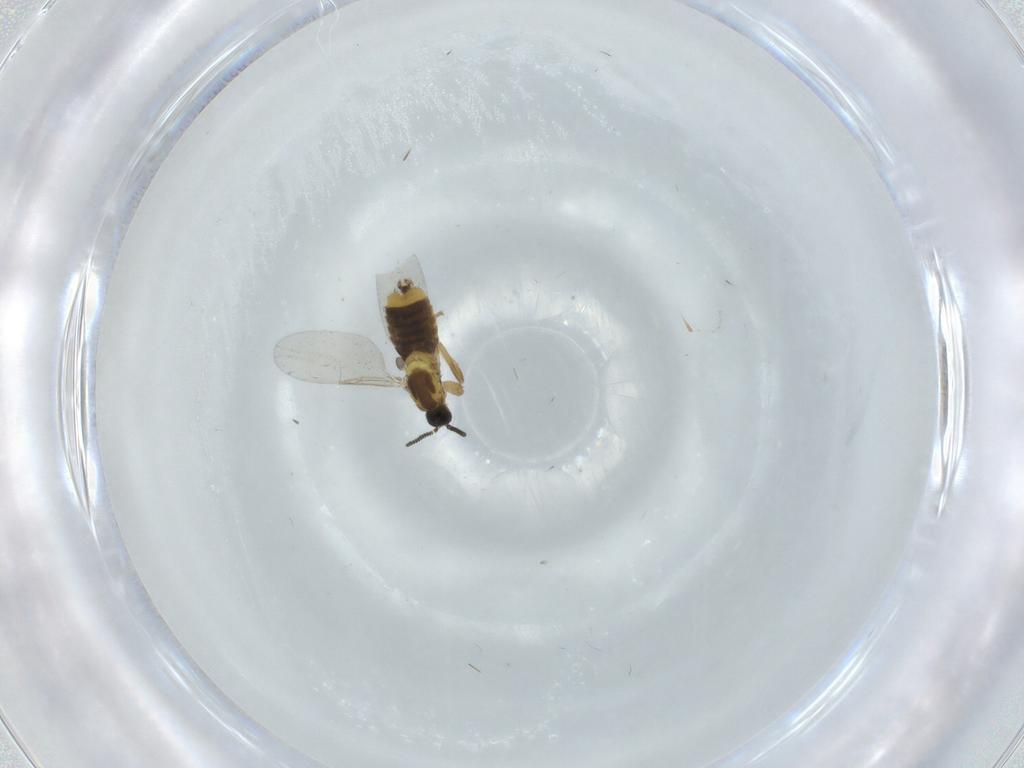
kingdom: Animalia
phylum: Arthropoda
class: Insecta
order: Diptera
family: Scatopsidae
